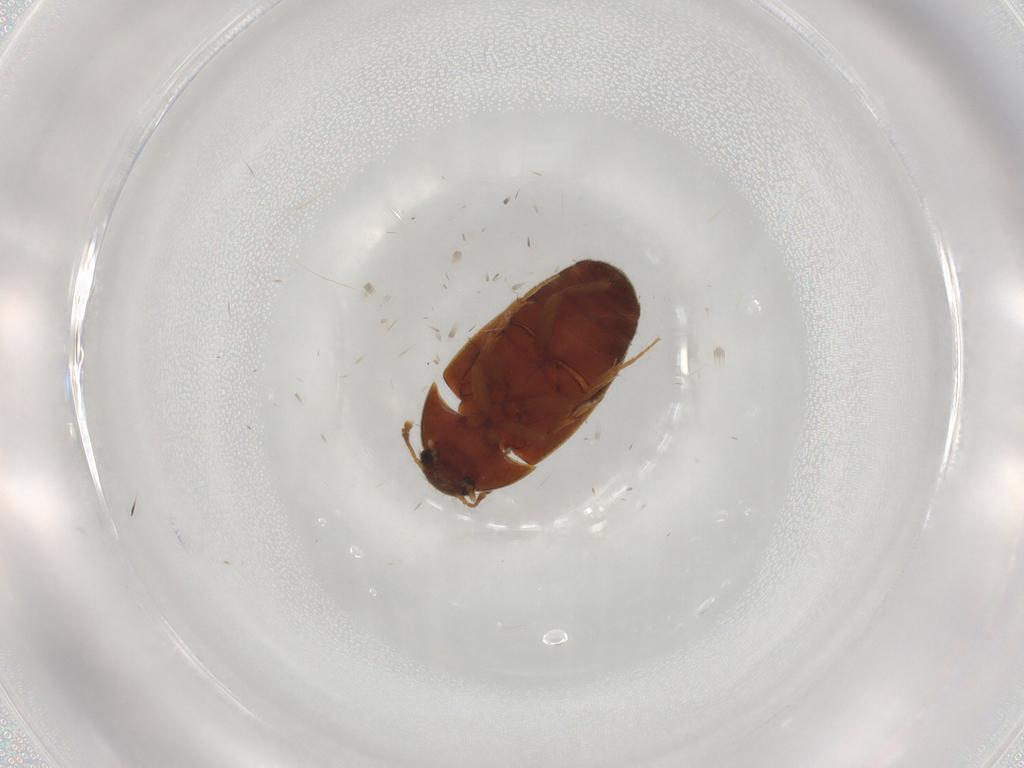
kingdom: Animalia
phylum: Arthropoda
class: Insecta
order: Coleoptera
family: Mycetophagidae
